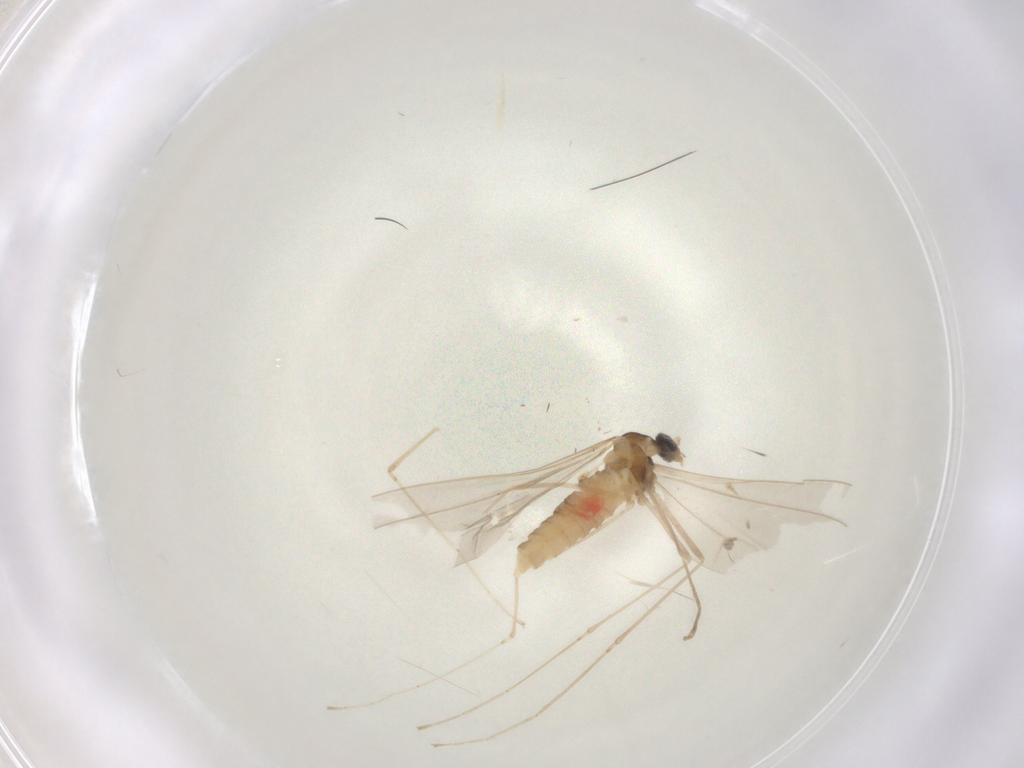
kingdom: Animalia
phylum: Arthropoda
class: Insecta
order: Diptera
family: Cecidomyiidae
